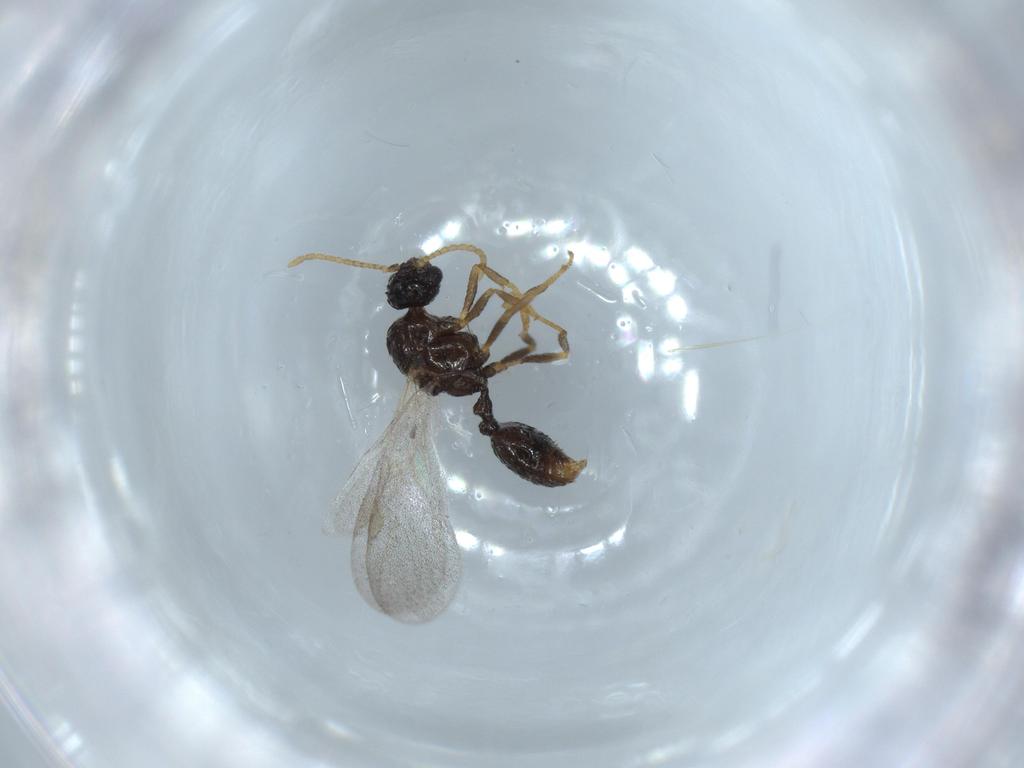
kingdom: Animalia
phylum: Arthropoda
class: Insecta
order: Hymenoptera
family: Formicidae
